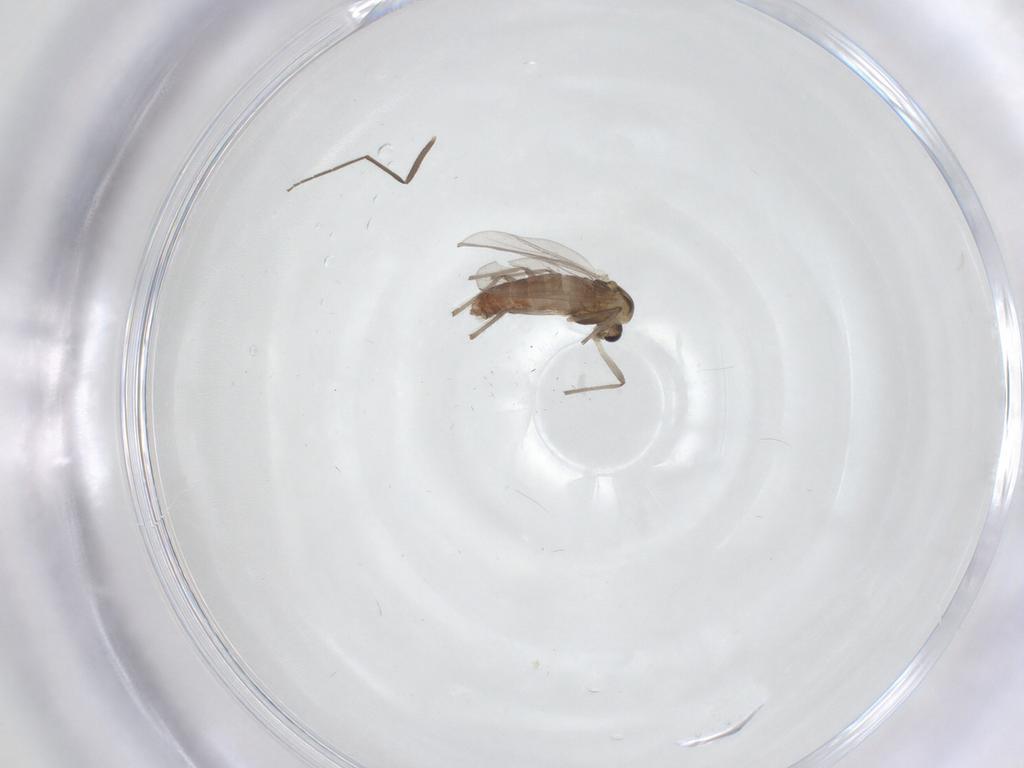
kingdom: Animalia
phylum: Arthropoda
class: Insecta
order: Diptera
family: Chironomidae
